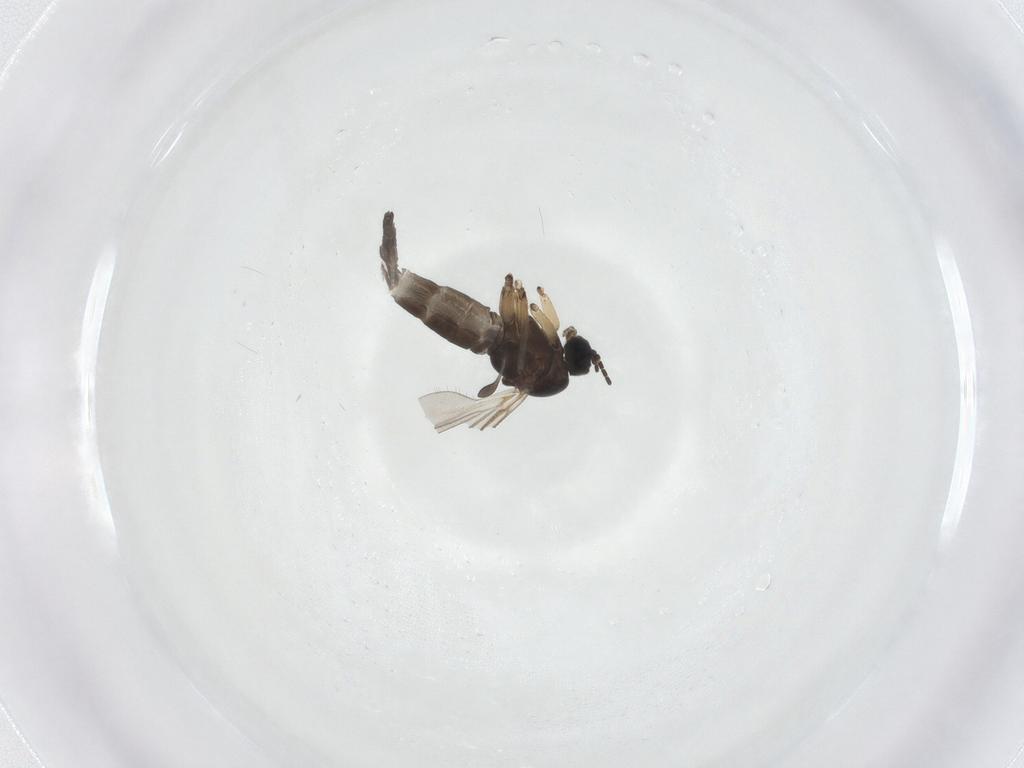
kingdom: Animalia
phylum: Arthropoda
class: Insecta
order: Diptera
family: Sciaridae
